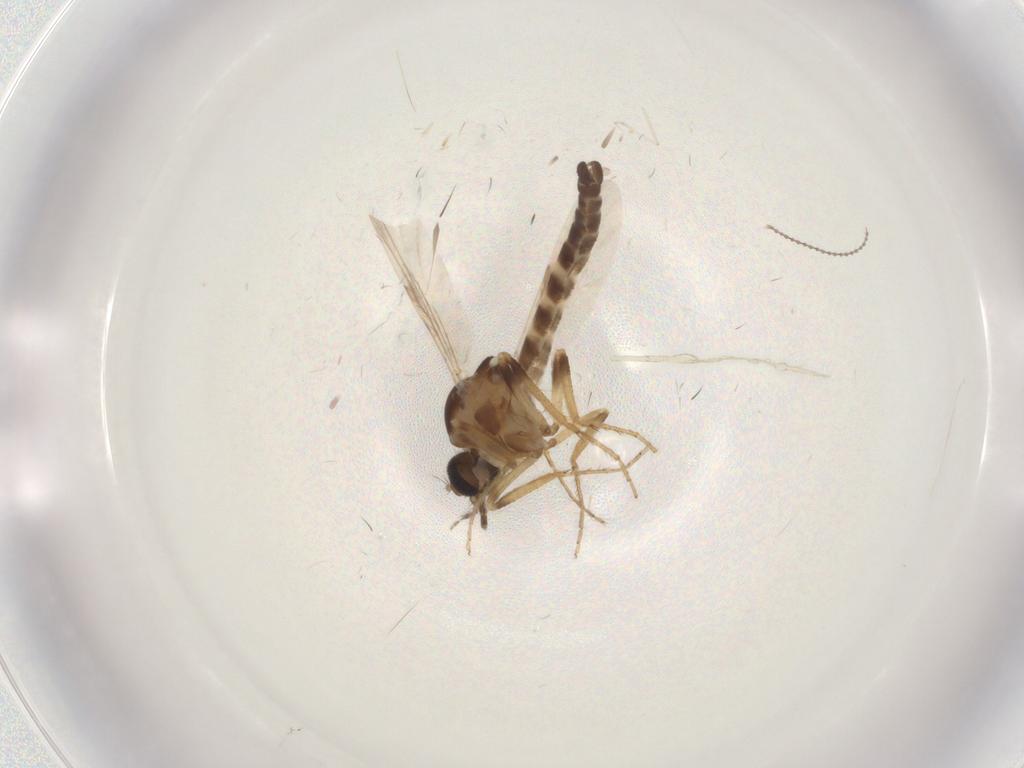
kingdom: Animalia
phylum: Arthropoda
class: Insecta
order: Diptera
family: Ceratopogonidae
